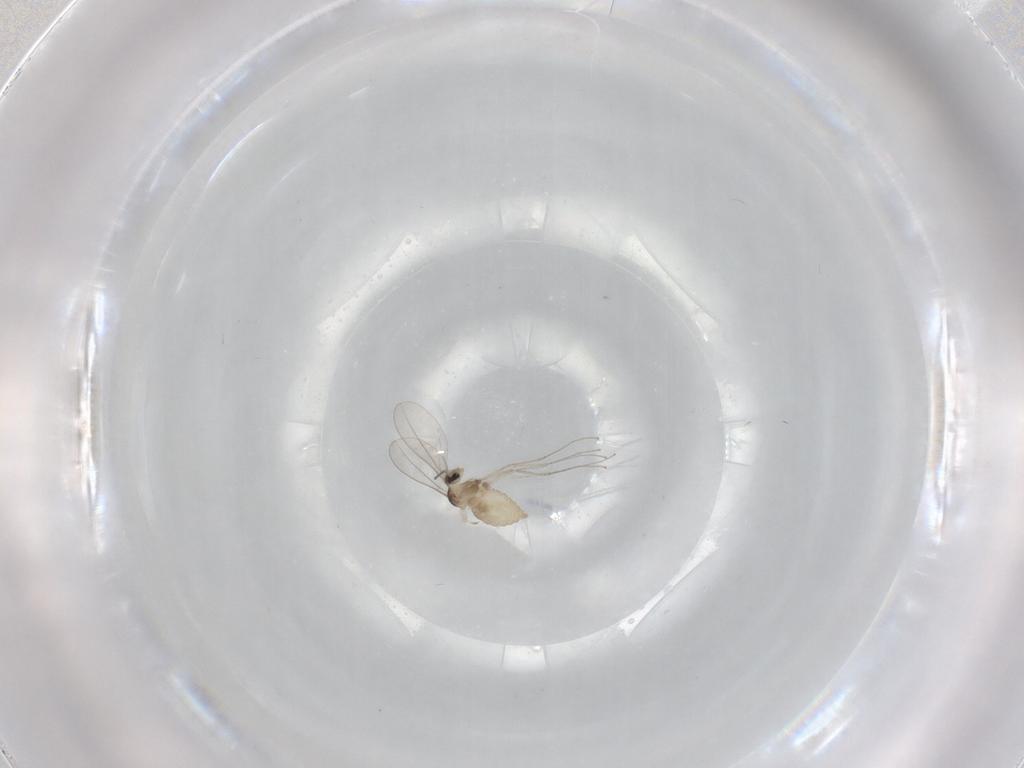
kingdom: Animalia
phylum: Arthropoda
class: Insecta
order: Diptera
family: Cecidomyiidae
